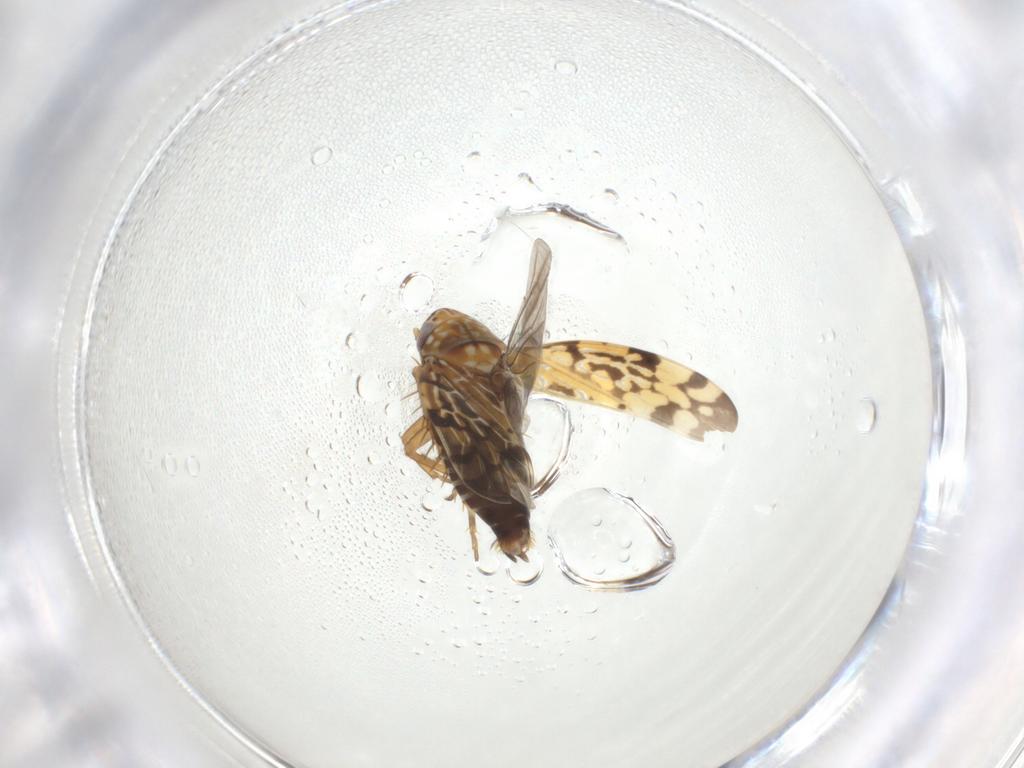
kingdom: Animalia
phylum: Arthropoda
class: Insecta
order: Hemiptera
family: Cicadellidae
